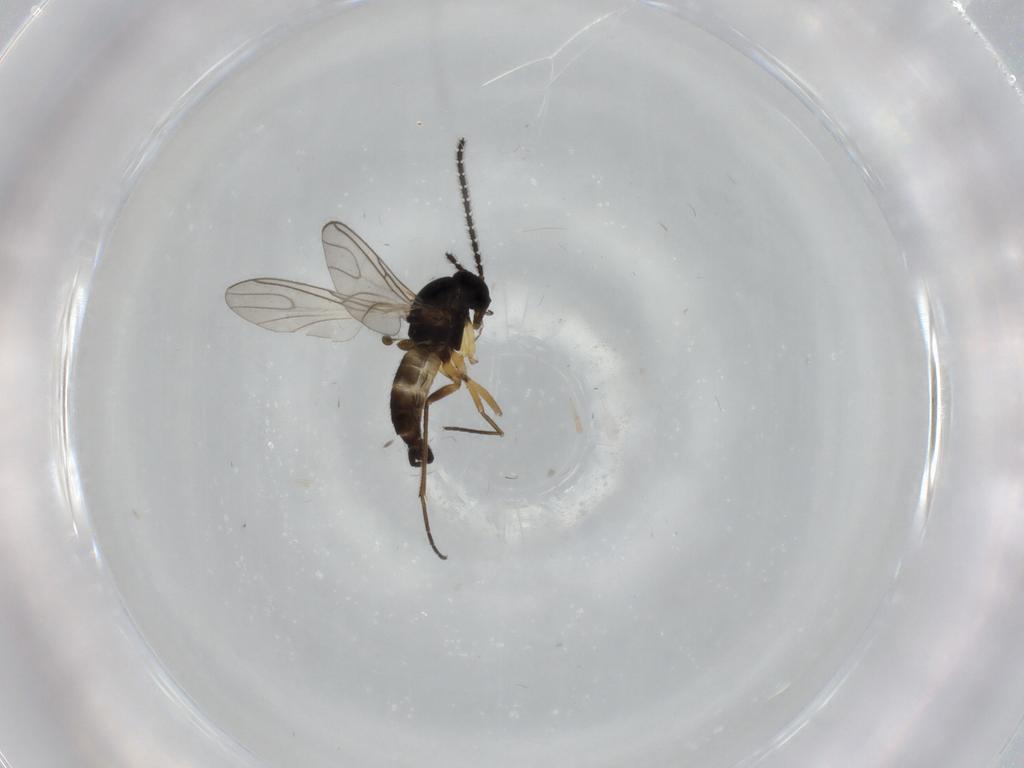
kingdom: Animalia
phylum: Arthropoda
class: Insecta
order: Diptera
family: Sciaridae
